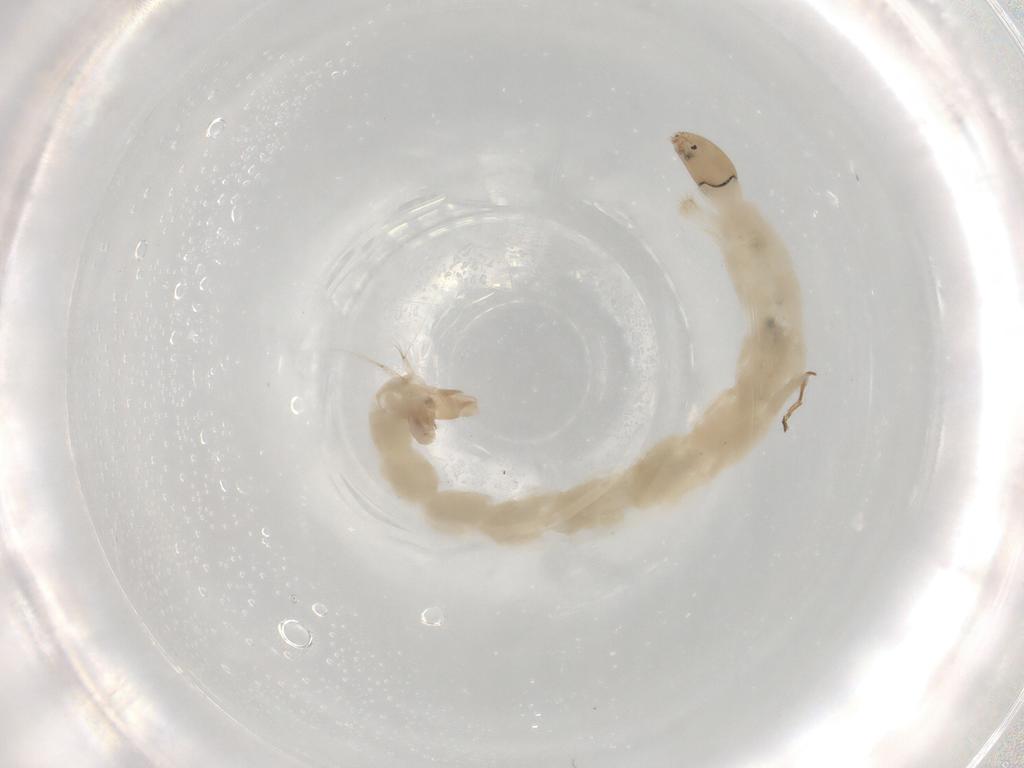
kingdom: Animalia
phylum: Arthropoda
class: Insecta
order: Diptera
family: Chironomidae
